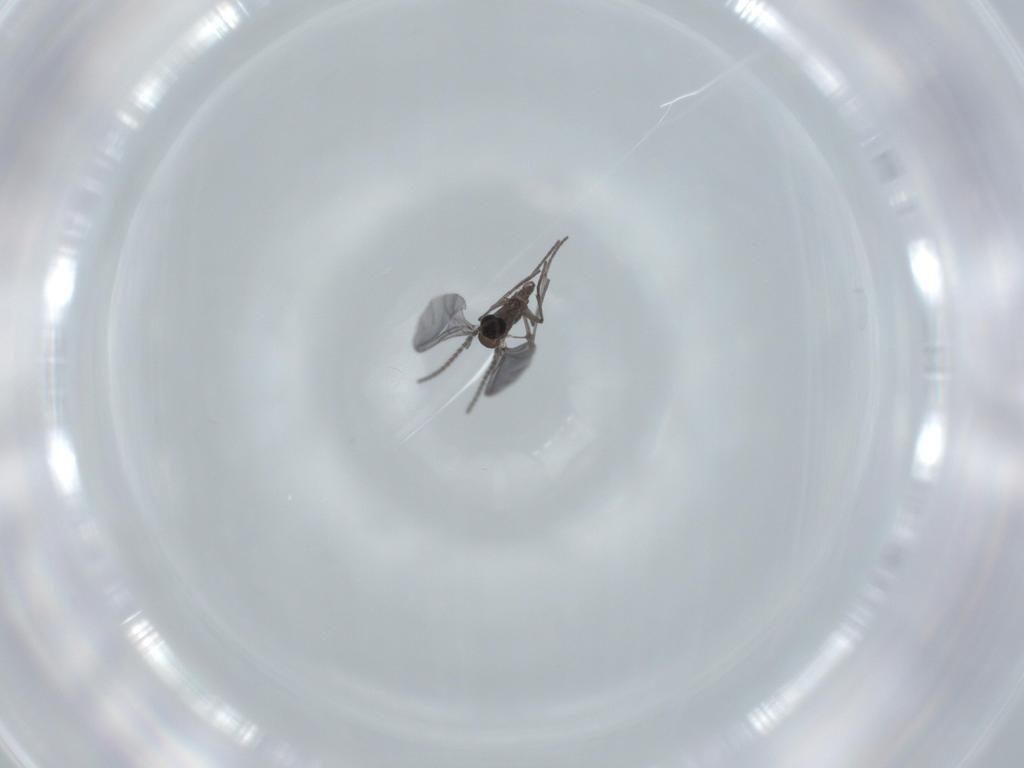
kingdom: Animalia
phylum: Arthropoda
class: Insecta
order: Diptera
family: Sciaridae
